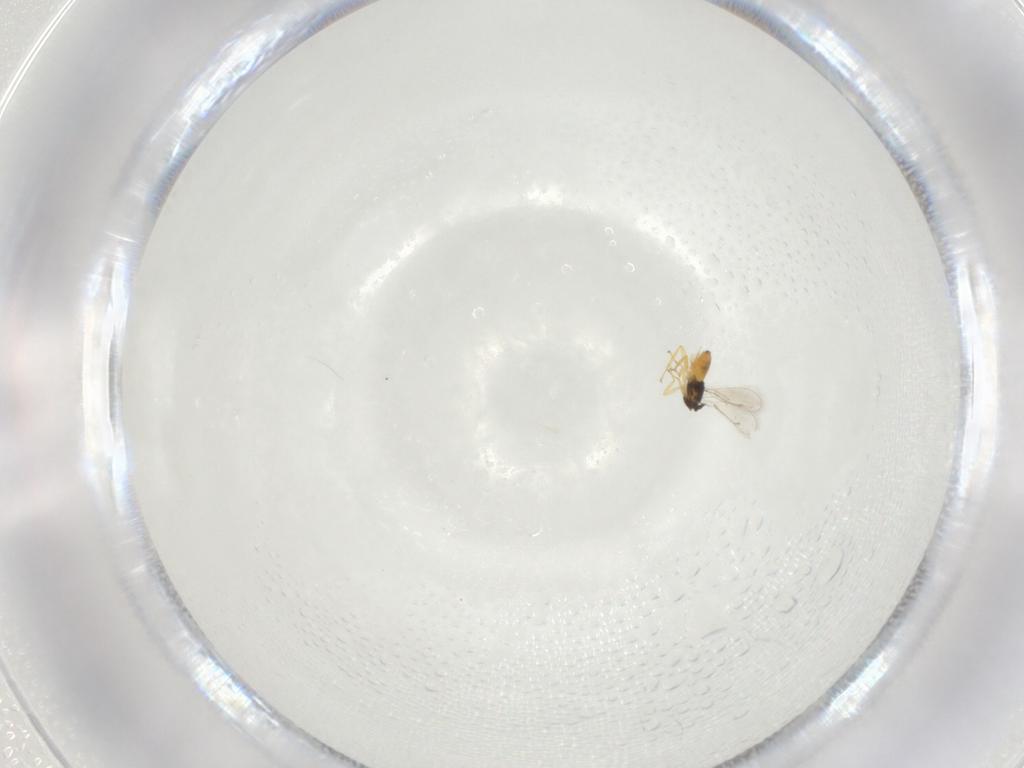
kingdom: Animalia
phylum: Arthropoda
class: Insecta
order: Hymenoptera
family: Eulophidae
